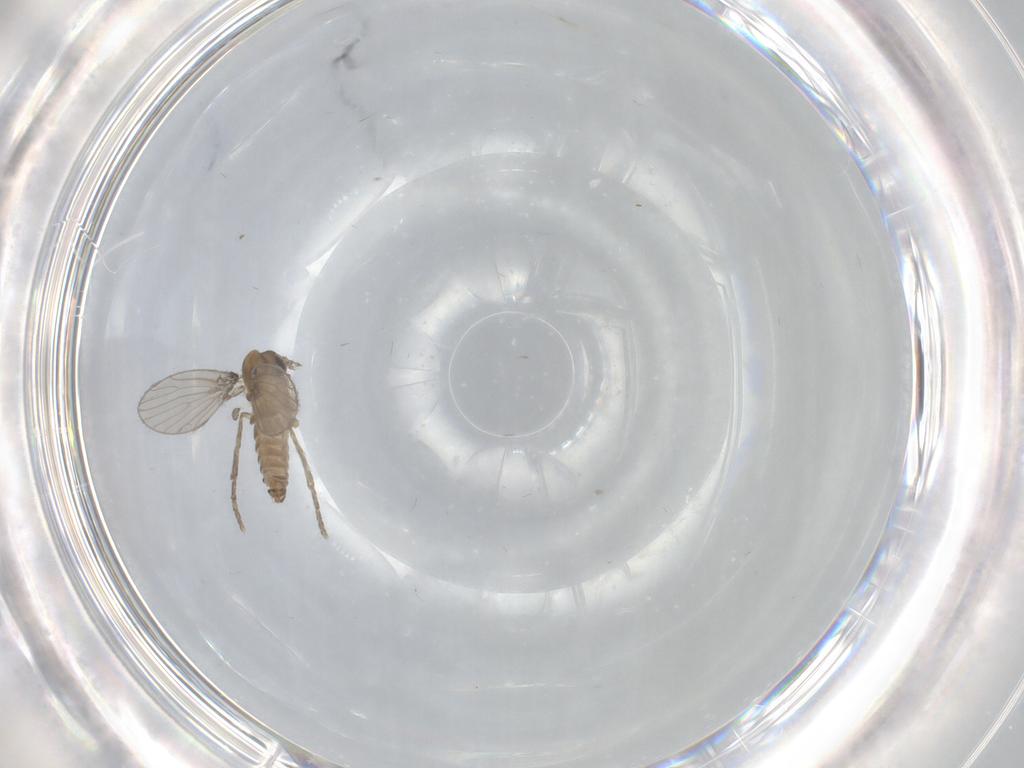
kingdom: Animalia
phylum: Arthropoda
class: Insecta
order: Diptera
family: Psychodidae
